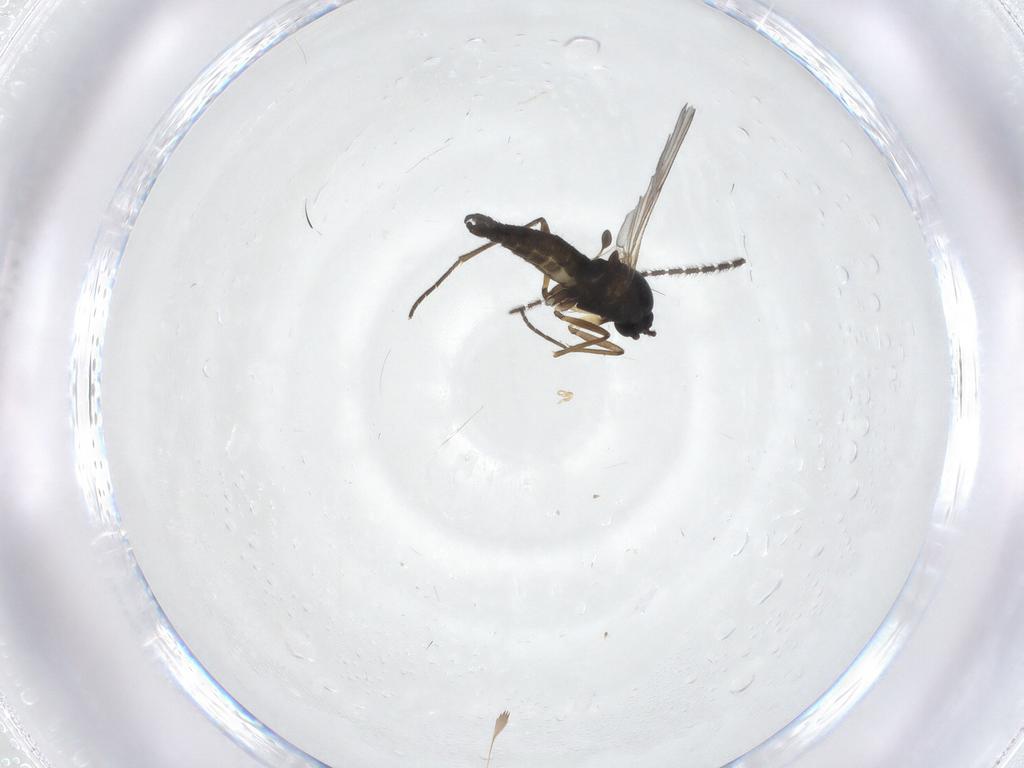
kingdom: Animalia
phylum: Arthropoda
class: Insecta
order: Diptera
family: Sciaridae
